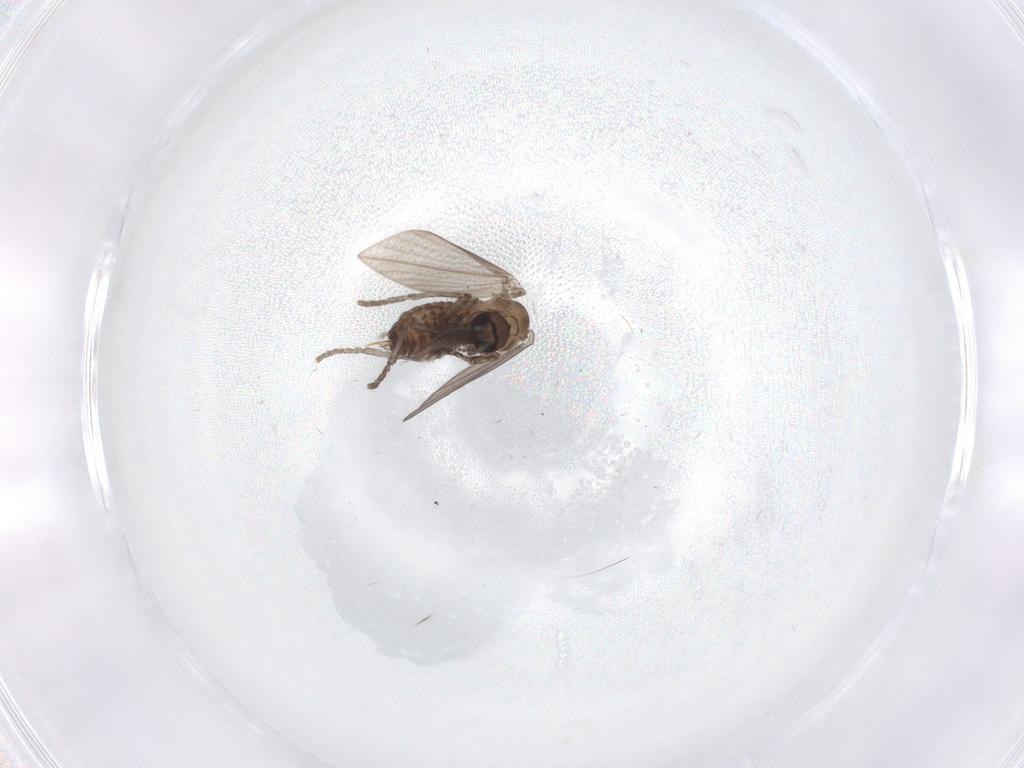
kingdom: Animalia
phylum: Arthropoda
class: Insecta
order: Diptera
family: Psychodidae
